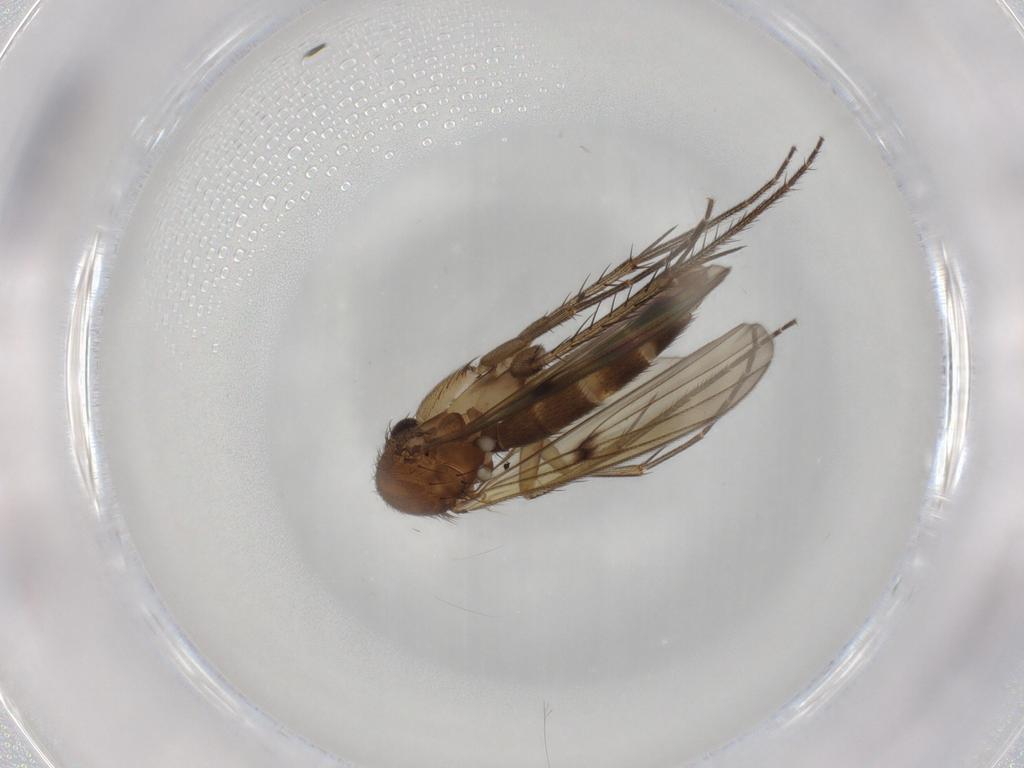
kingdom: Animalia
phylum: Arthropoda
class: Insecta
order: Diptera
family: Mycetophilidae
